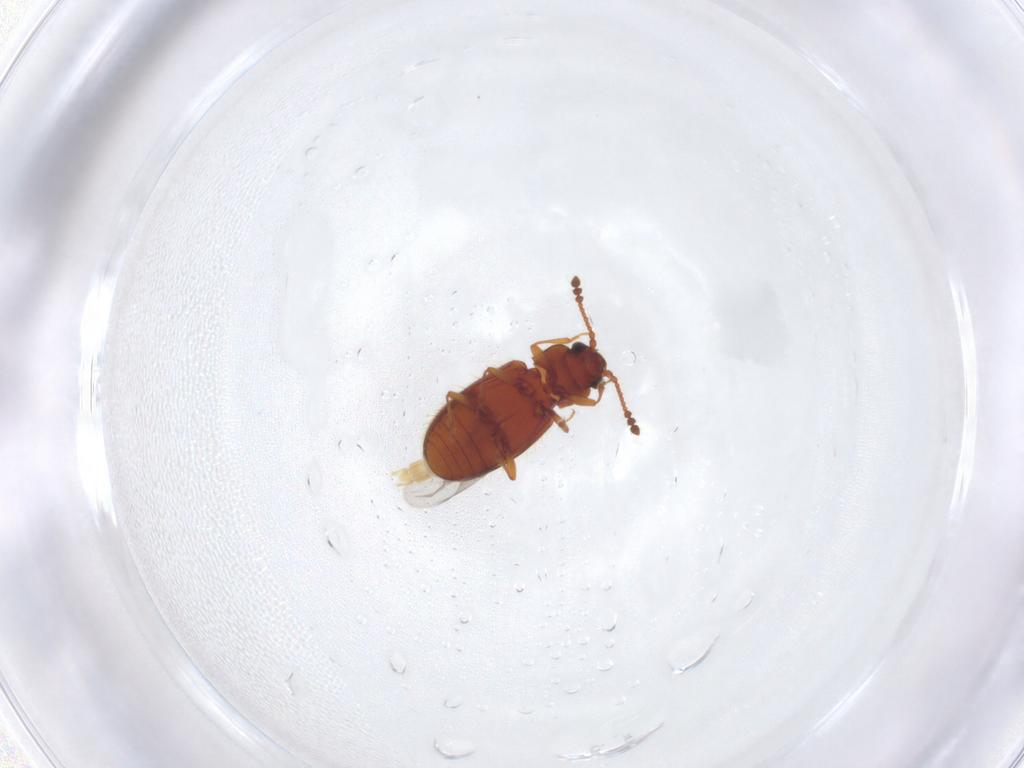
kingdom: Animalia
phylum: Arthropoda
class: Insecta
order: Coleoptera
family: Cryptophagidae
